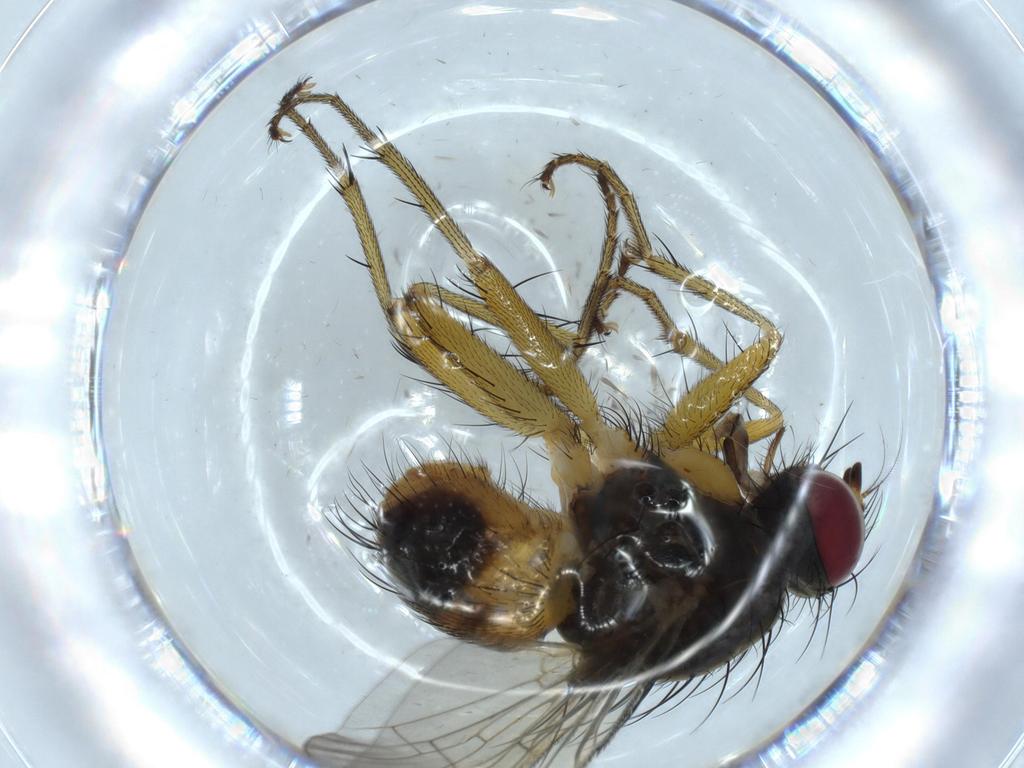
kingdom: Animalia
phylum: Arthropoda
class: Insecta
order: Diptera
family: Muscidae
